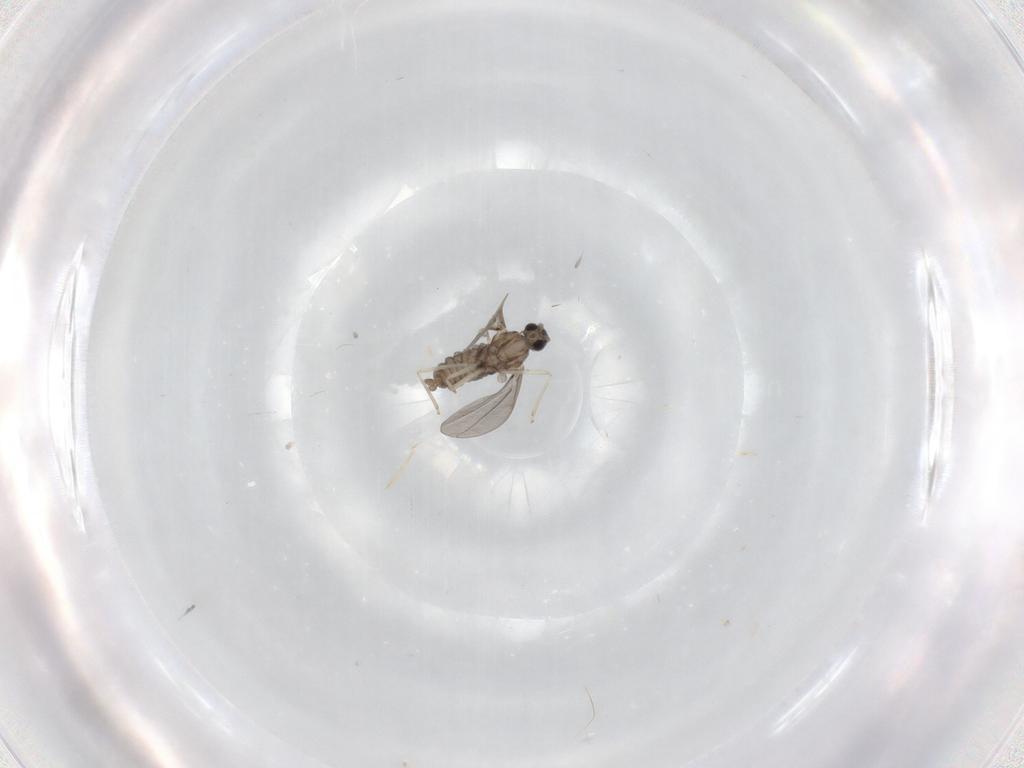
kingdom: Animalia
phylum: Arthropoda
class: Insecta
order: Diptera
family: Cecidomyiidae
